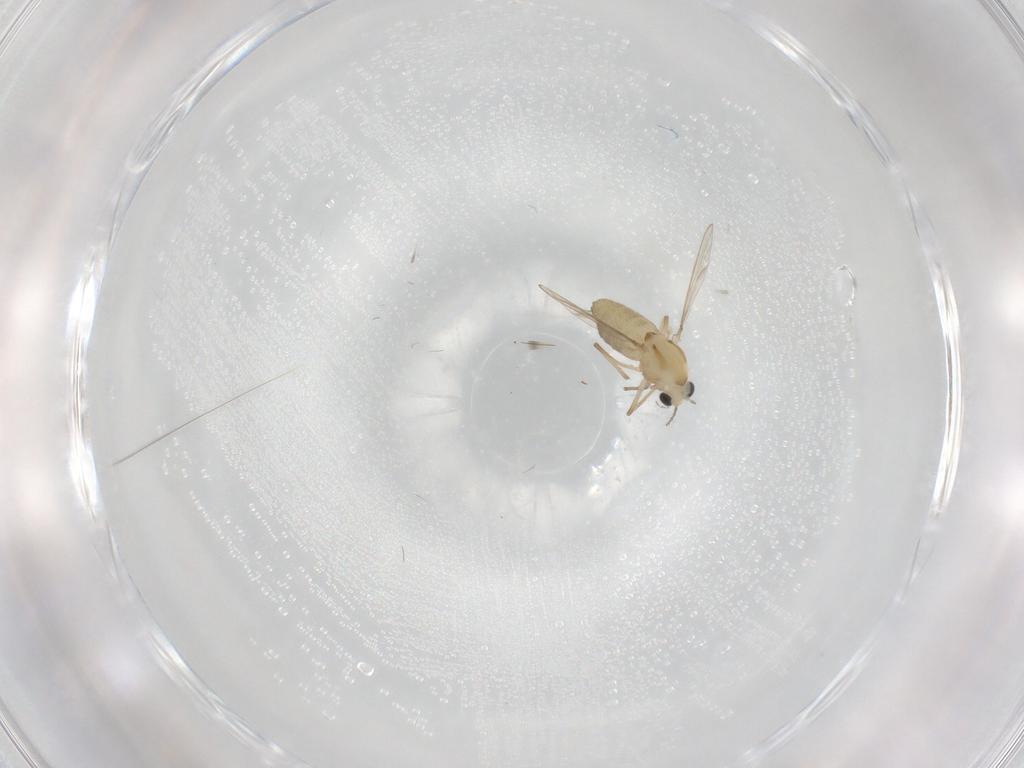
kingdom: Animalia
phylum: Arthropoda
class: Insecta
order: Diptera
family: Chironomidae
